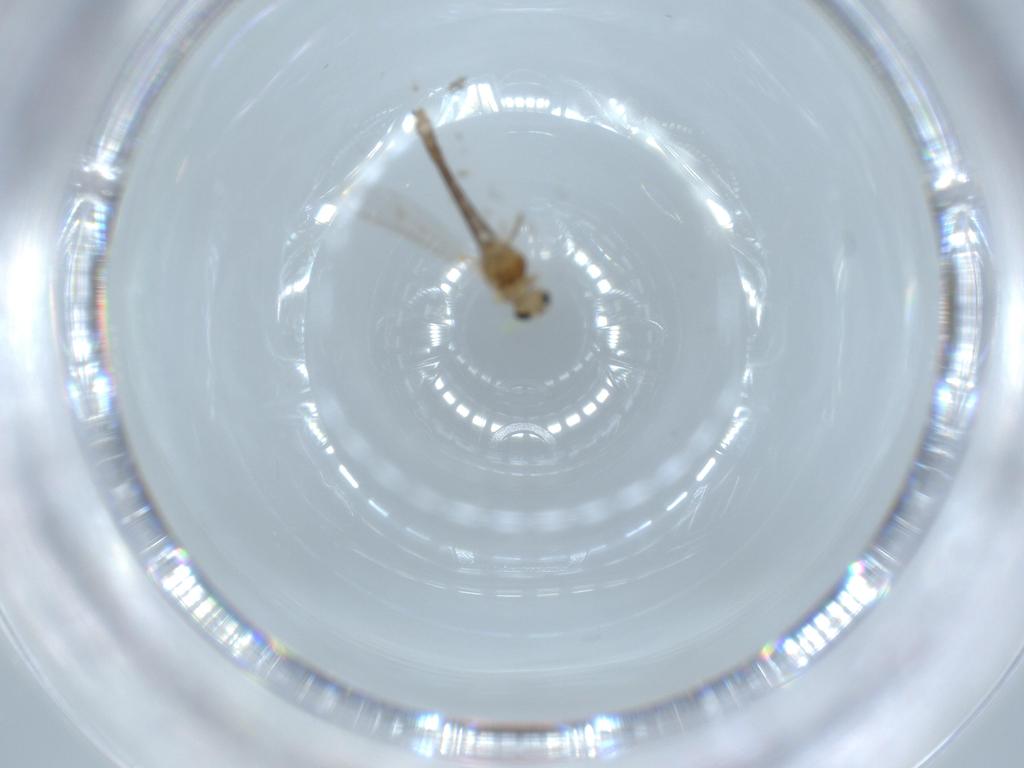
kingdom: Animalia
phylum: Arthropoda
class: Insecta
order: Diptera
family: Chironomidae
